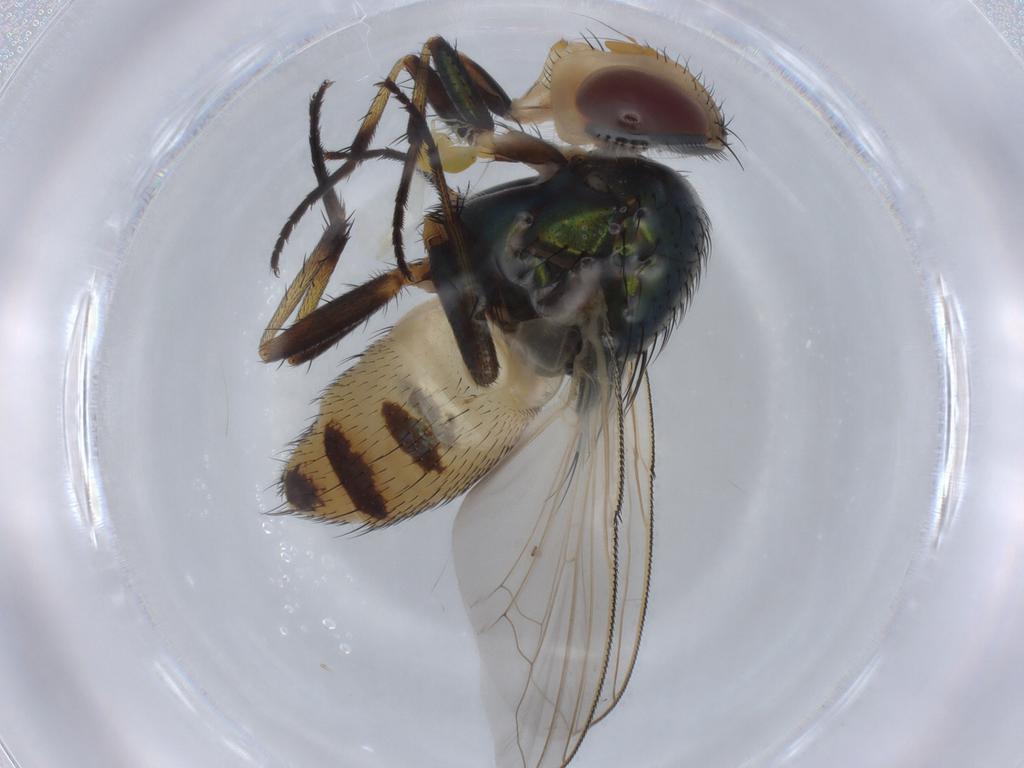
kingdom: Animalia
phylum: Arthropoda
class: Insecta
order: Diptera
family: Calliphoridae
